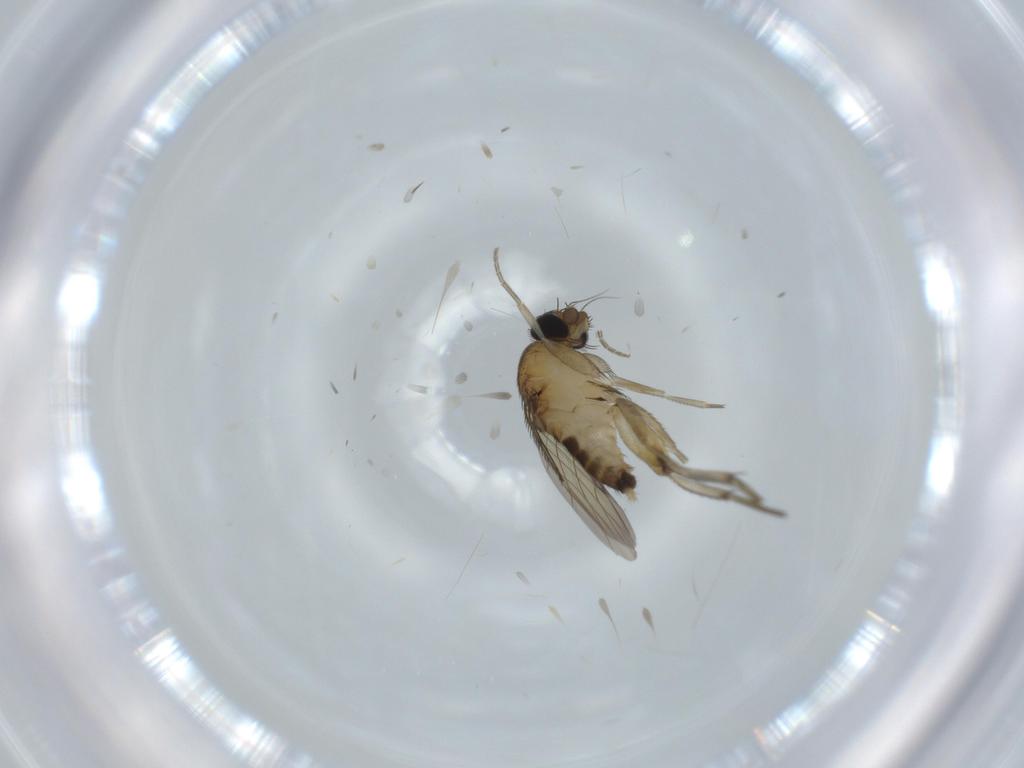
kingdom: Animalia
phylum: Arthropoda
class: Insecta
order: Diptera
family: Phoridae
